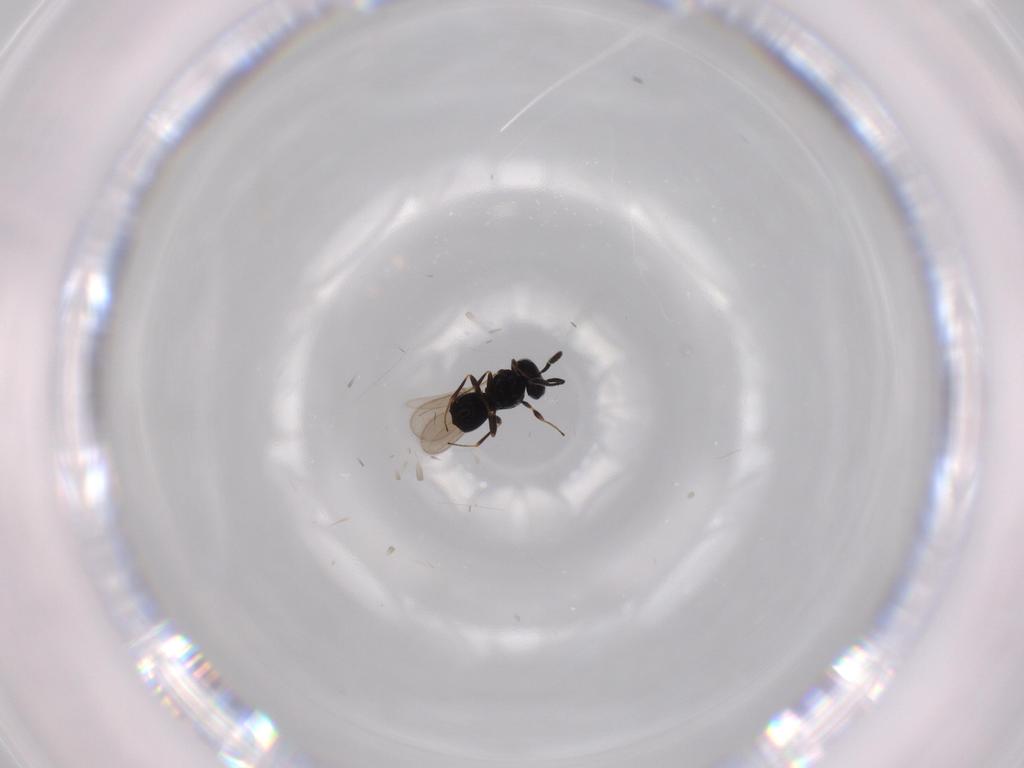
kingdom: Animalia
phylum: Arthropoda
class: Insecta
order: Hymenoptera
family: Scelionidae
